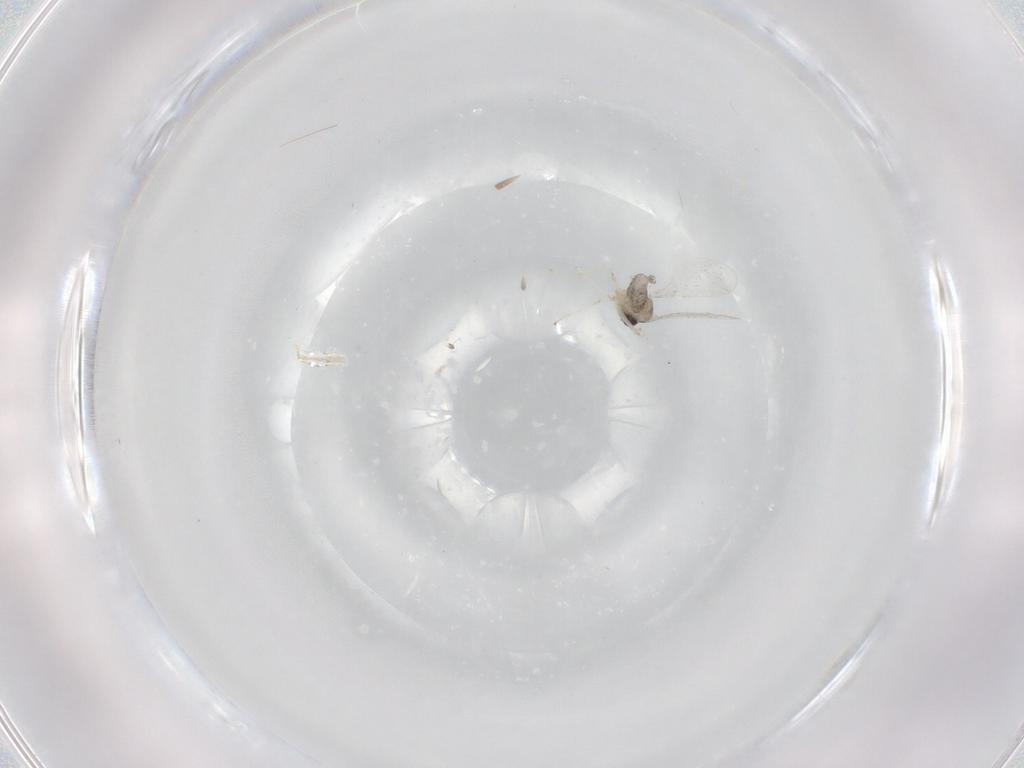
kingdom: Animalia
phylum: Arthropoda
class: Insecta
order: Diptera
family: Cecidomyiidae
